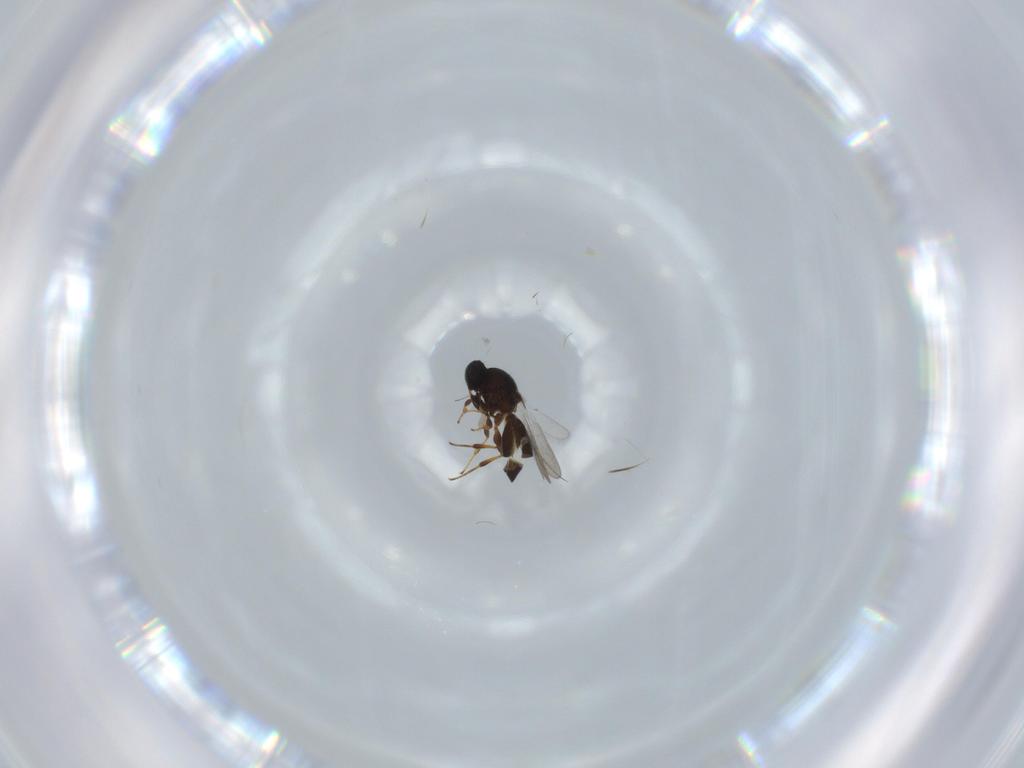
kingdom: Animalia
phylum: Arthropoda
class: Insecta
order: Hymenoptera
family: Platygastridae
